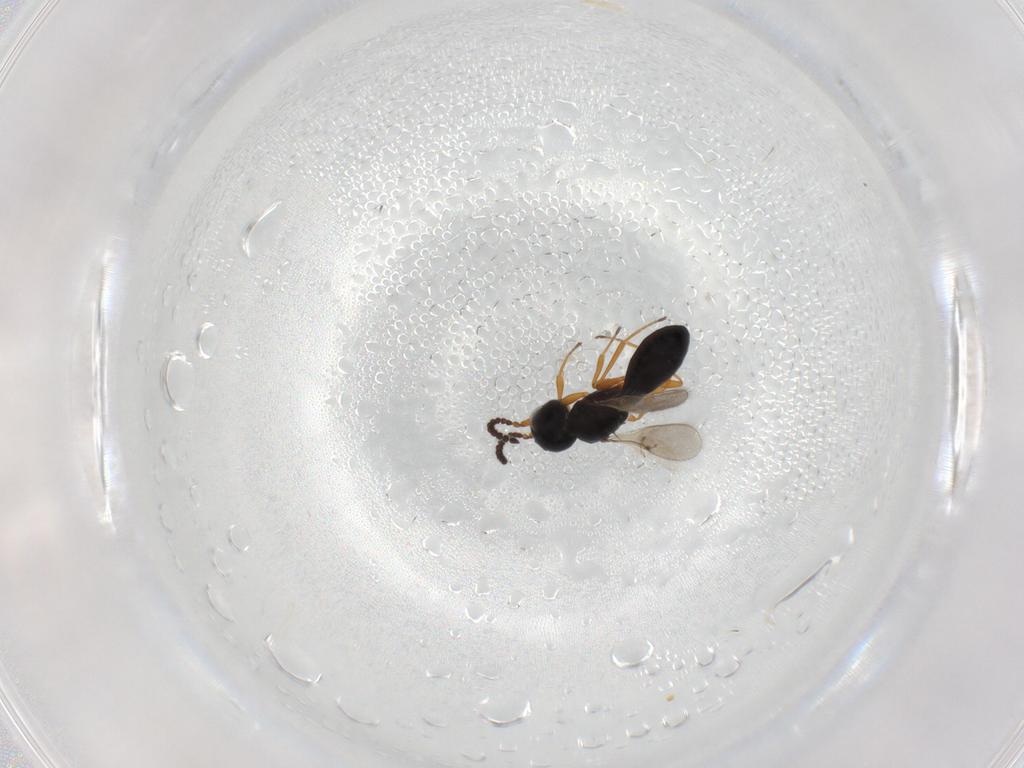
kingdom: Animalia
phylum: Arthropoda
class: Insecta
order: Hymenoptera
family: Scelionidae
